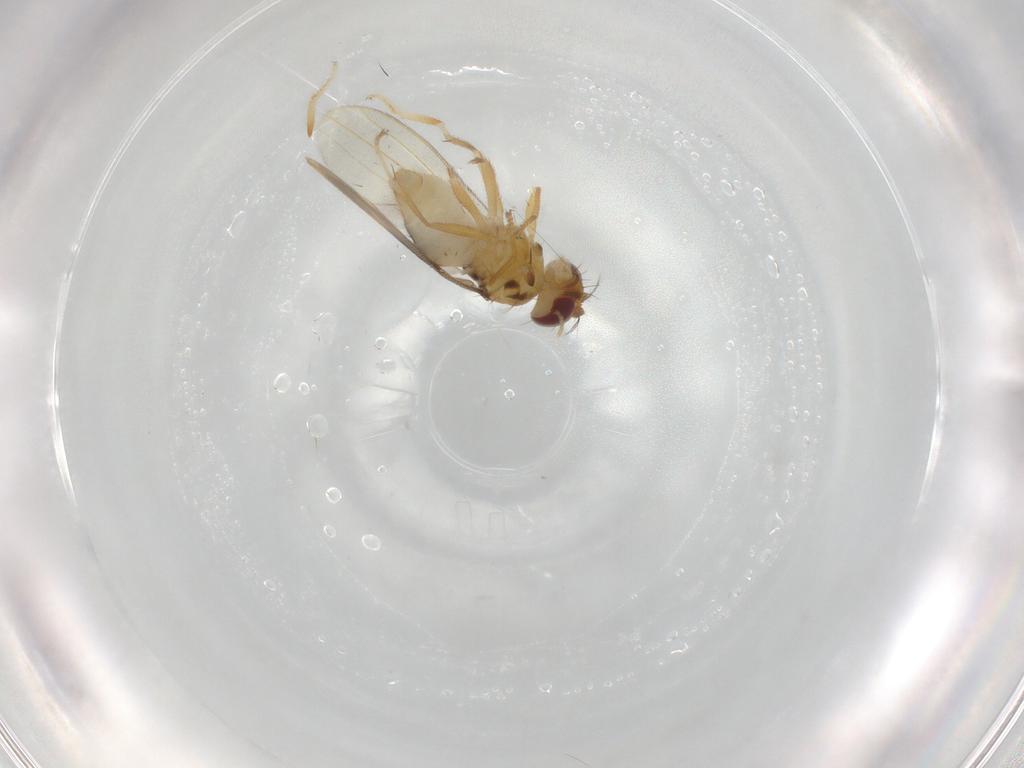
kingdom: Animalia
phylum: Arthropoda
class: Insecta
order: Diptera
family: Periscelididae
